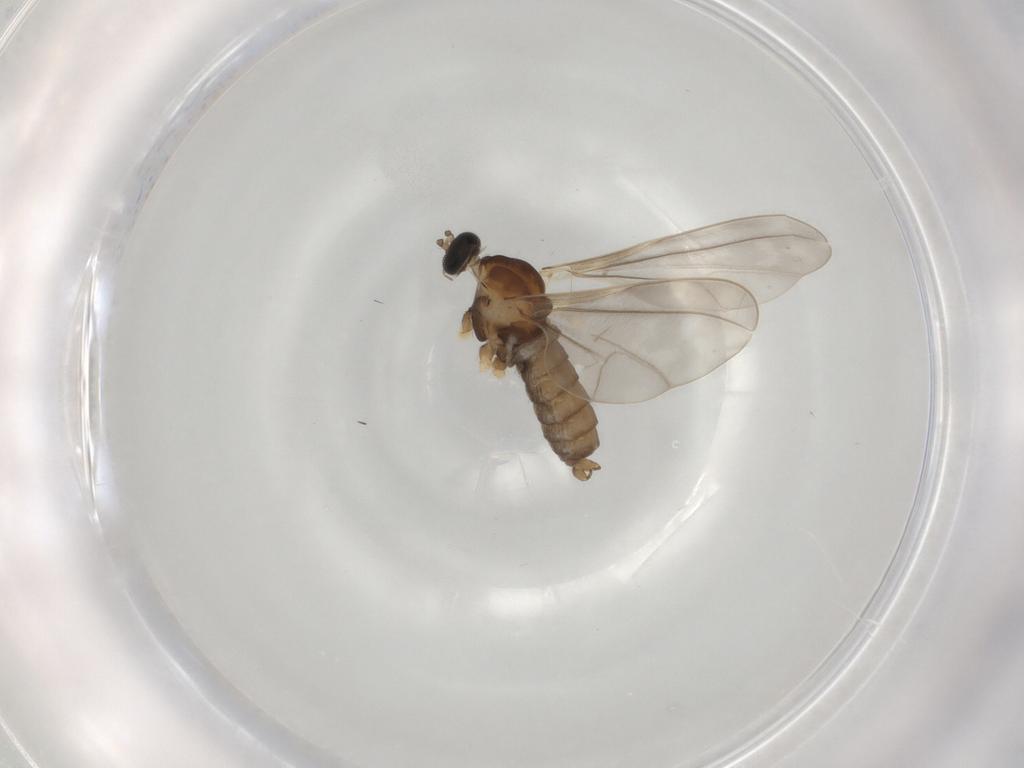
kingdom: Animalia
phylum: Arthropoda
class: Insecta
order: Diptera
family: Cecidomyiidae
